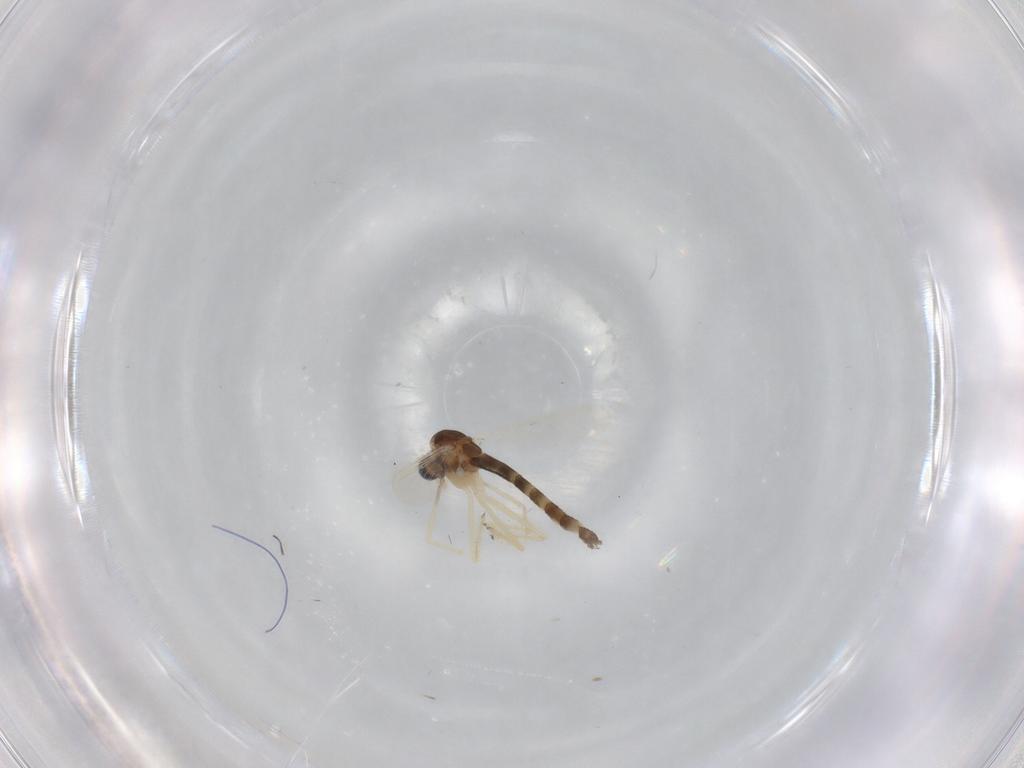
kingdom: Animalia
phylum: Arthropoda
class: Insecta
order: Diptera
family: Chironomidae
